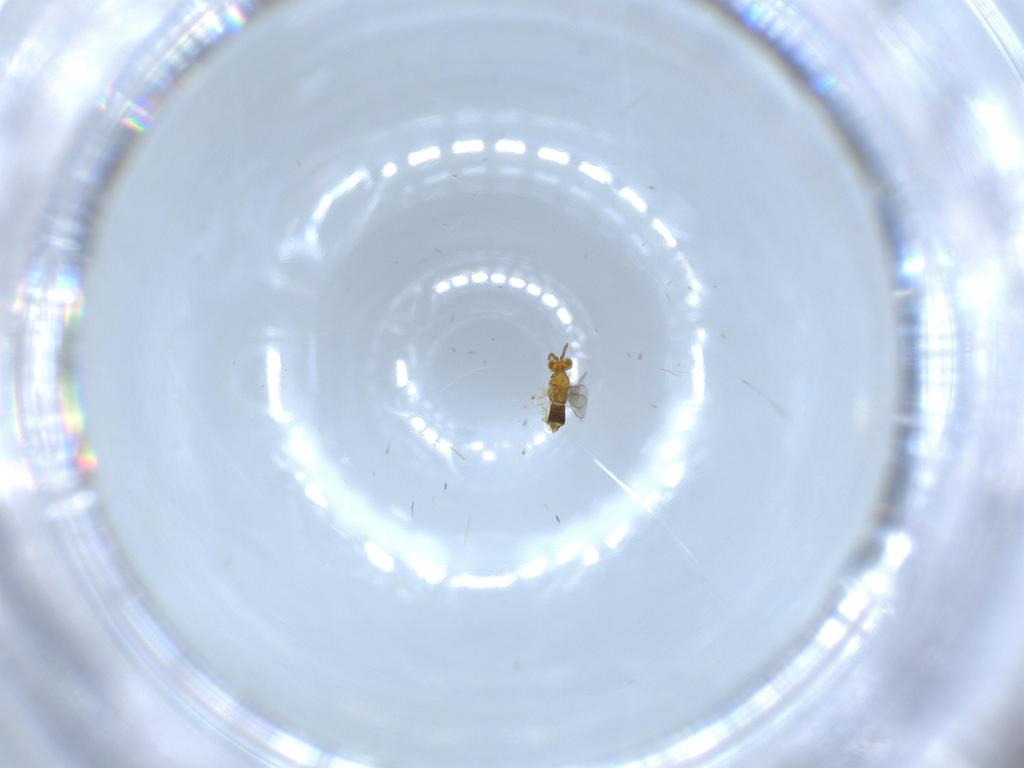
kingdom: Animalia
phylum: Arthropoda
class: Insecta
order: Hymenoptera
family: Aphelinidae
